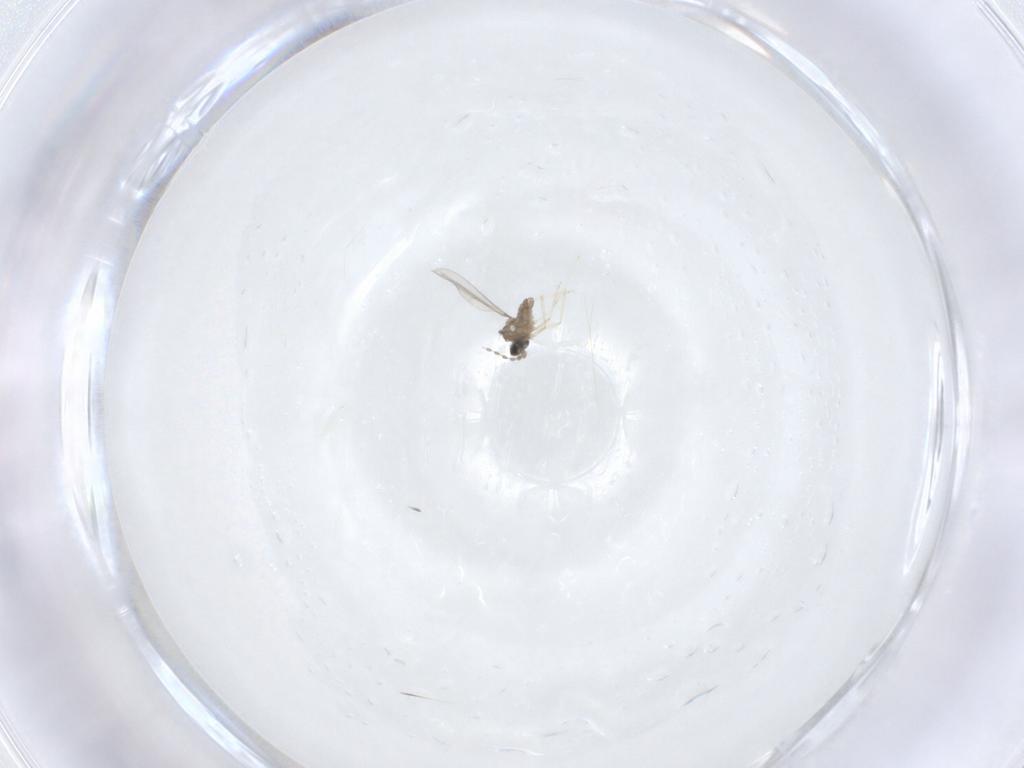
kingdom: Animalia
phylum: Arthropoda
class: Insecta
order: Diptera
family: Cecidomyiidae
